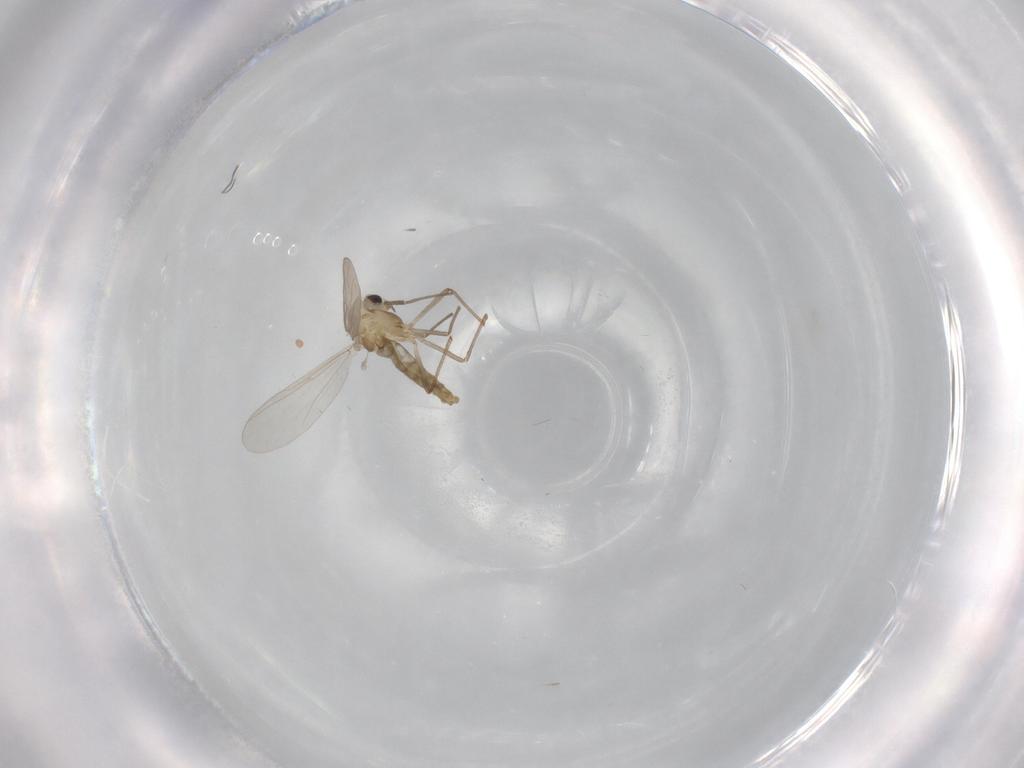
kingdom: Animalia
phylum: Arthropoda
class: Insecta
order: Diptera
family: Chironomidae
